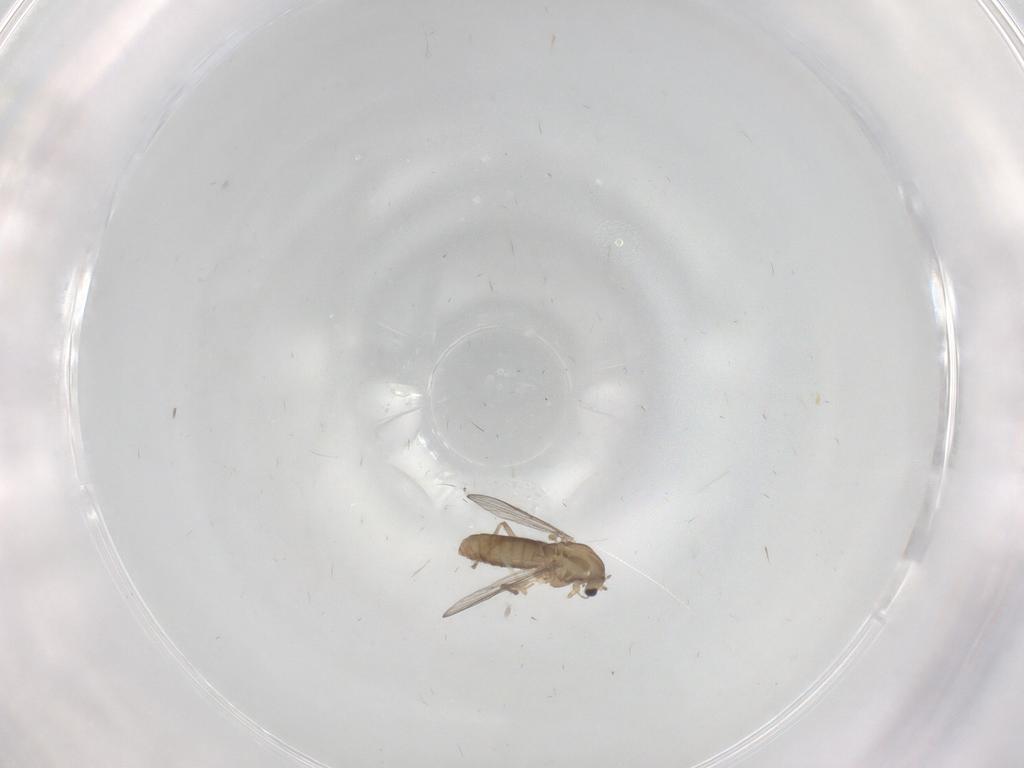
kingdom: Animalia
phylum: Arthropoda
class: Insecta
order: Diptera
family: Chironomidae
